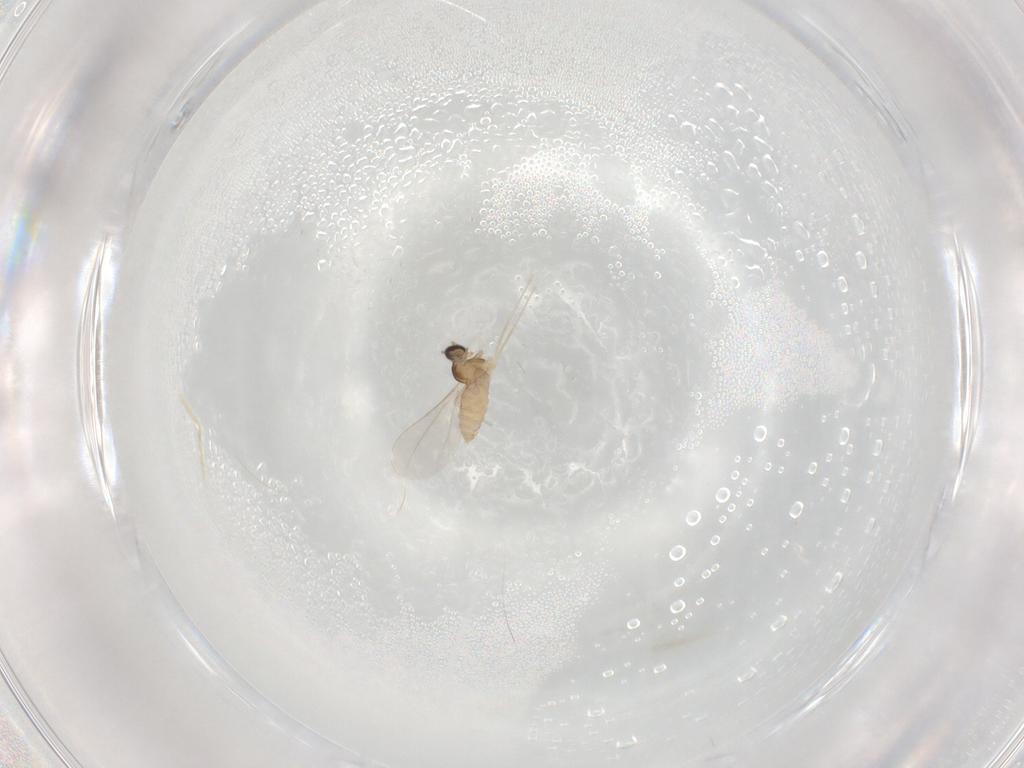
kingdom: Animalia
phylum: Arthropoda
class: Insecta
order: Diptera
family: Cecidomyiidae
